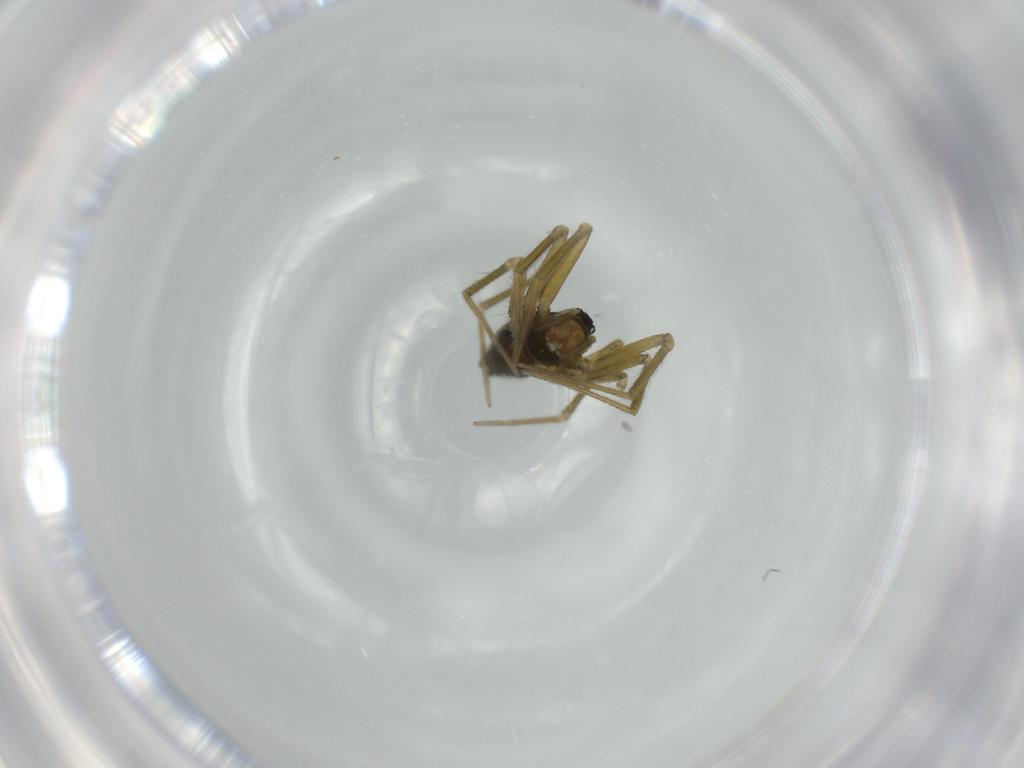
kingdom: Animalia
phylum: Arthropoda
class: Arachnida
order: Araneae
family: Linyphiidae
